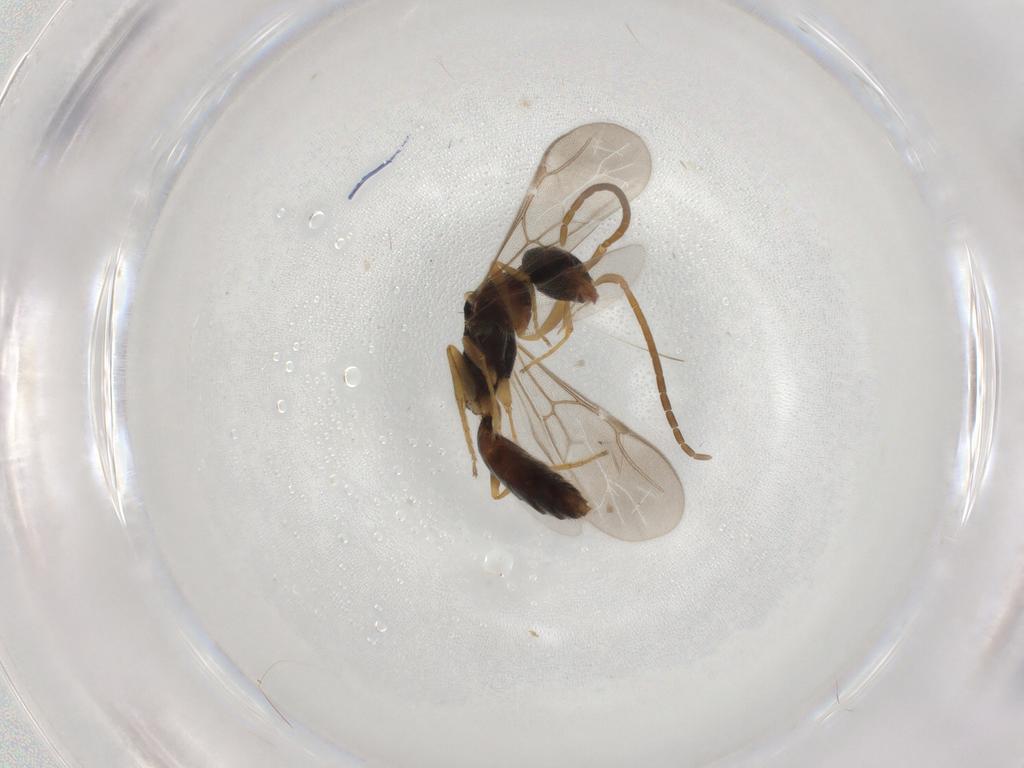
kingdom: Animalia
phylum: Arthropoda
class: Insecta
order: Hymenoptera
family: Bethylidae
